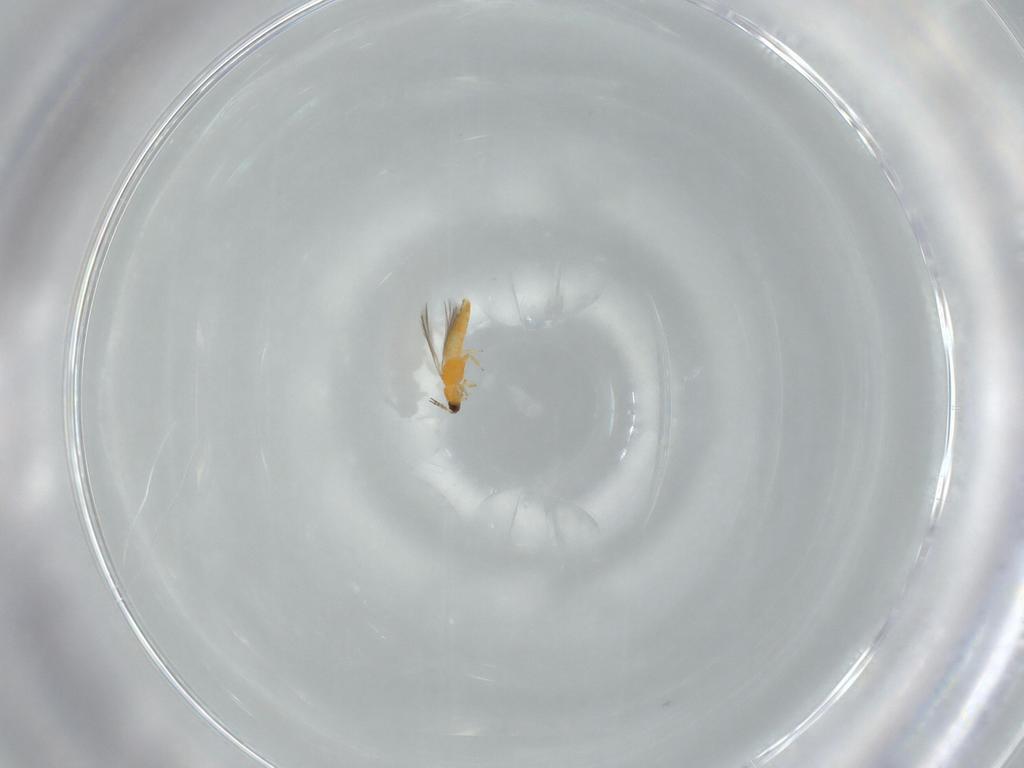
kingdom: Animalia
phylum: Arthropoda
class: Insecta
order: Thysanoptera
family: Heterothripidae
